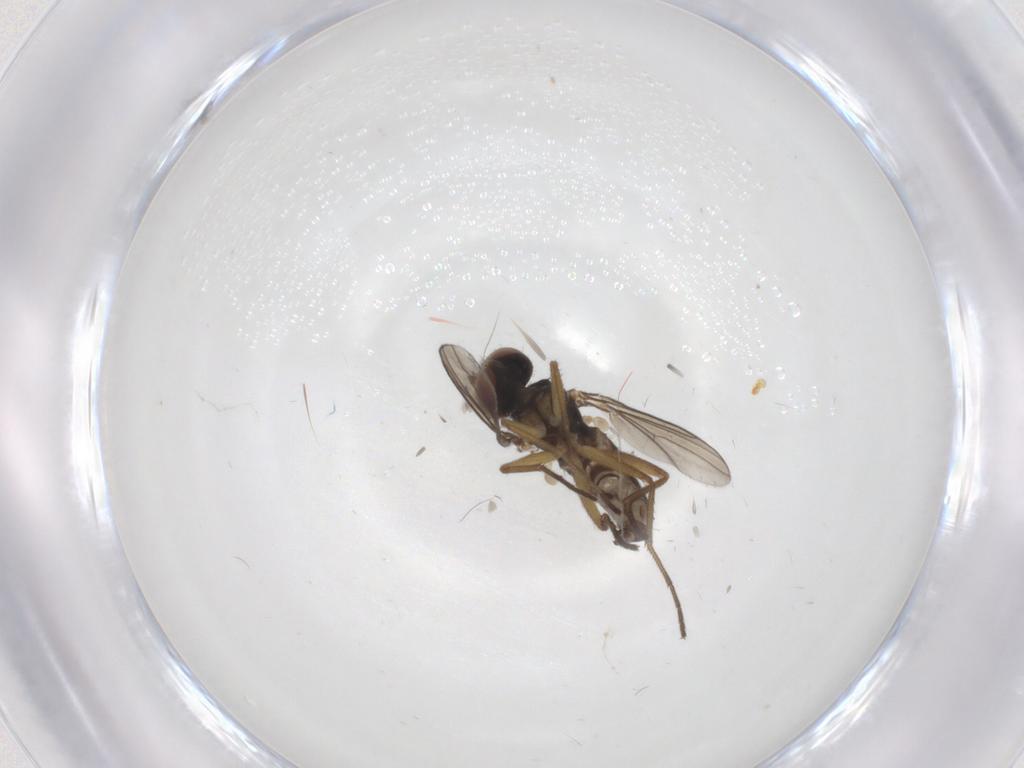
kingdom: Animalia
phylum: Arthropoda
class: Insecta
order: Diptera
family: Dolichopodidae
